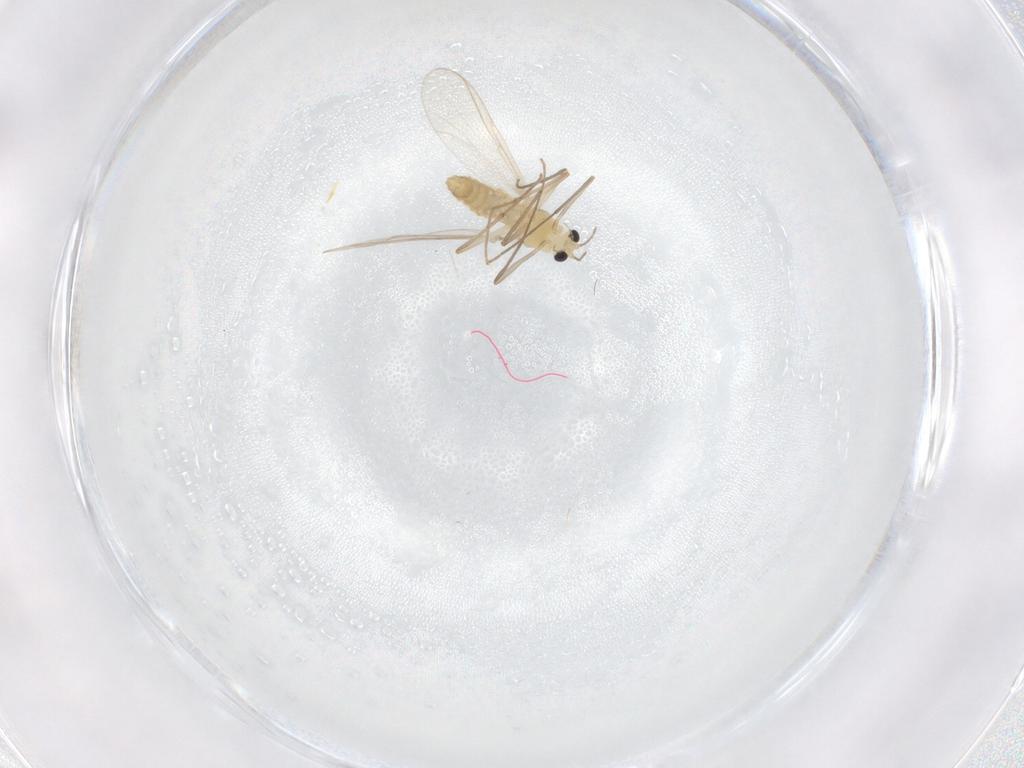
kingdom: Animalia
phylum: Arthropoda
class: Insecta
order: Diptera
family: Chironomidae
